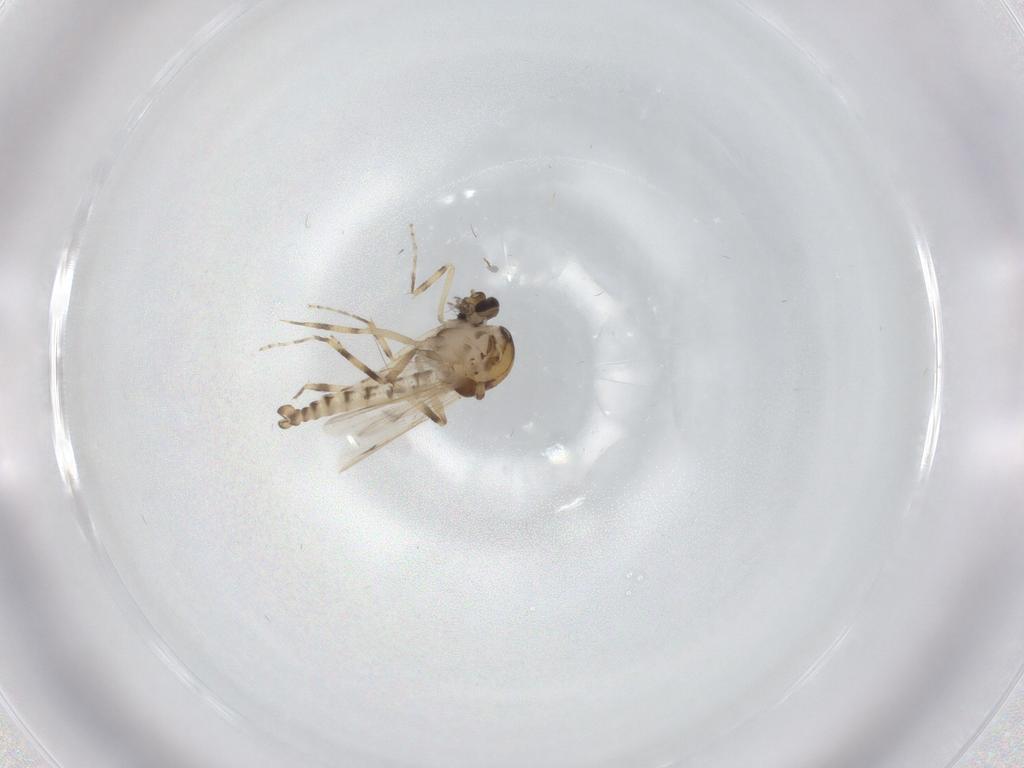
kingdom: Animalia
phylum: Arthropoda
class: Insecta
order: Diptera
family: Ceratopogonidae
